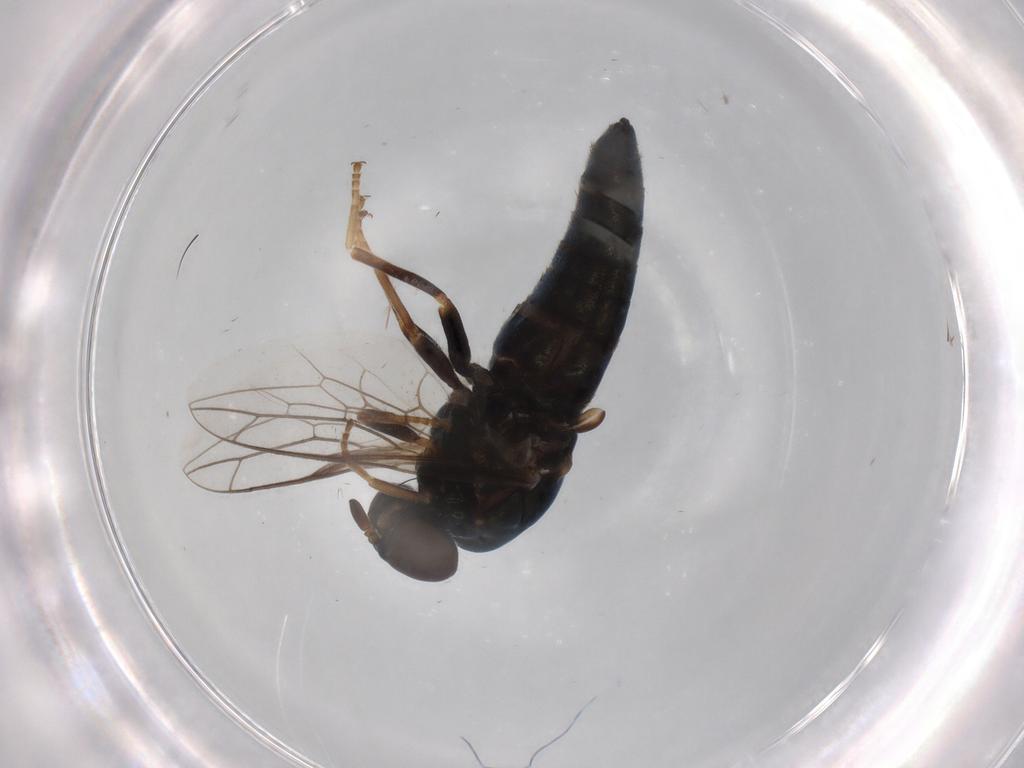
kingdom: Animalia
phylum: Arthropoda
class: Insecta
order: Diptera
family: Scenopinidae
